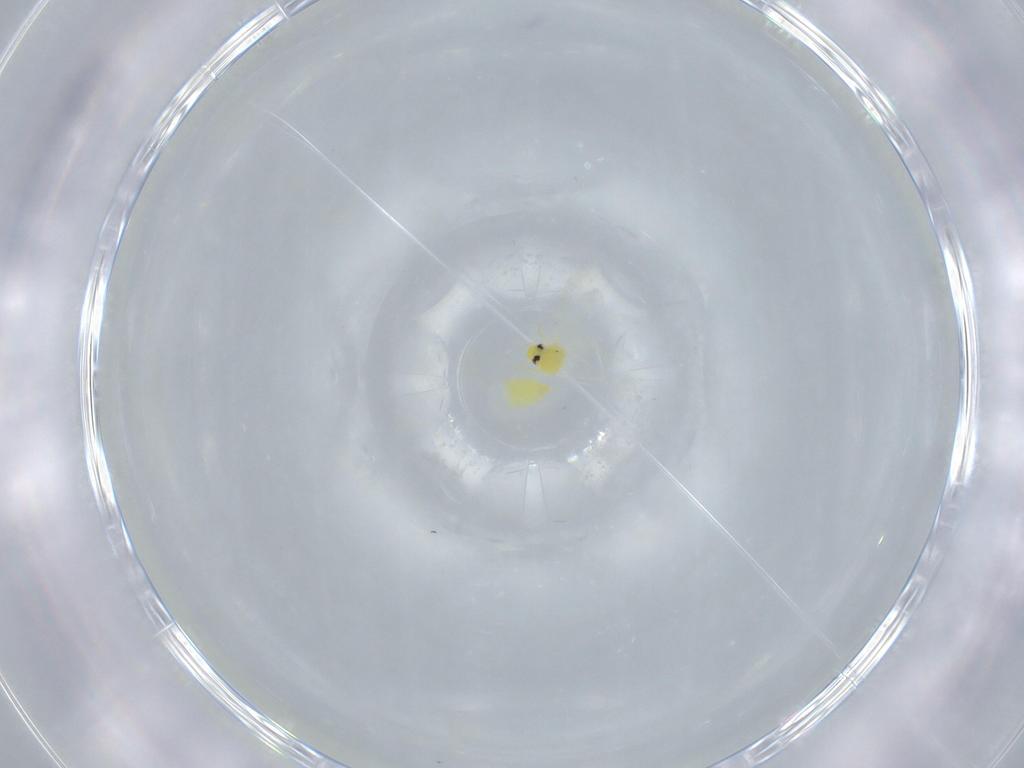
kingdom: Animalia
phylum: Arthropoda
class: Insecta
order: Hemiptera
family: Aleyrodidae
